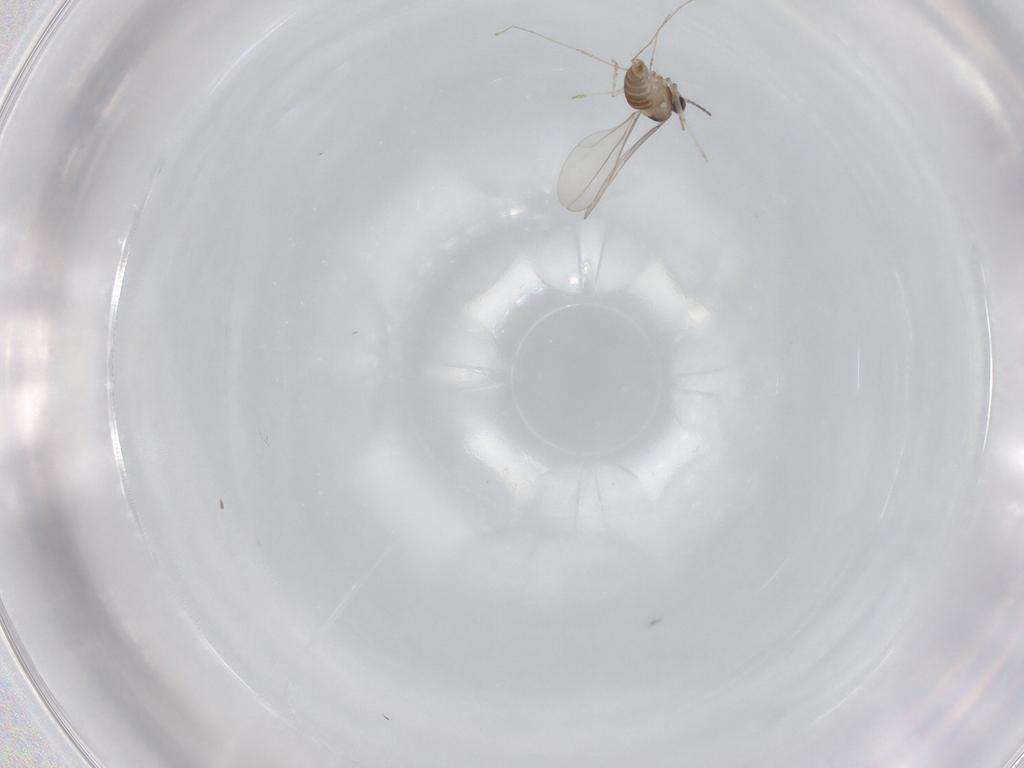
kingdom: Animalia
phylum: Arthropoda
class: Insecta
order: Diptera
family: Cecidomyiidae
